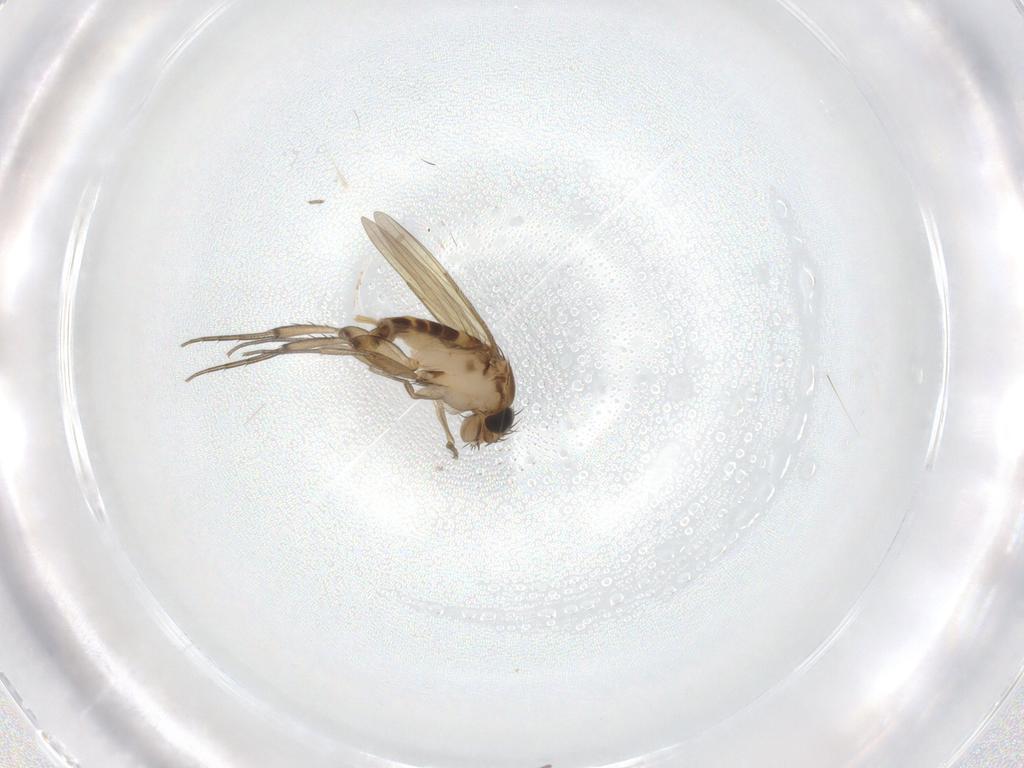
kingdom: Animalia
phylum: Arthropoda
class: Insecta
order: Diptera
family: Phoridae
